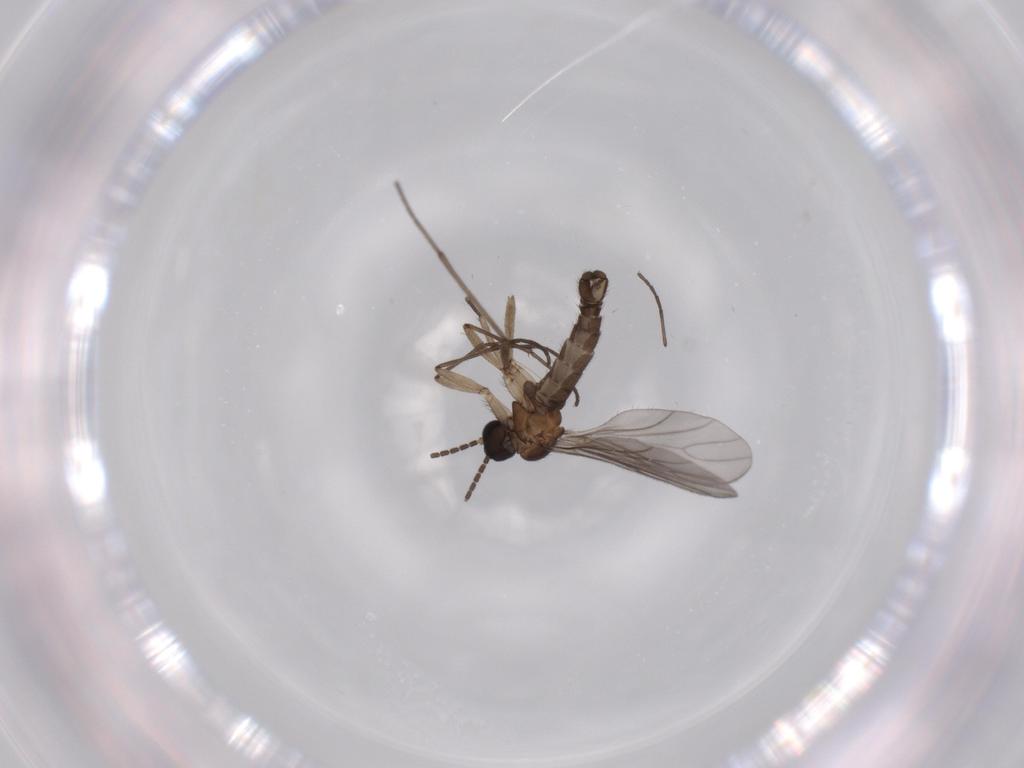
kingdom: Animalia
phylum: Arthropoda
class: Insecta
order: Diptera
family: Sciaridae
